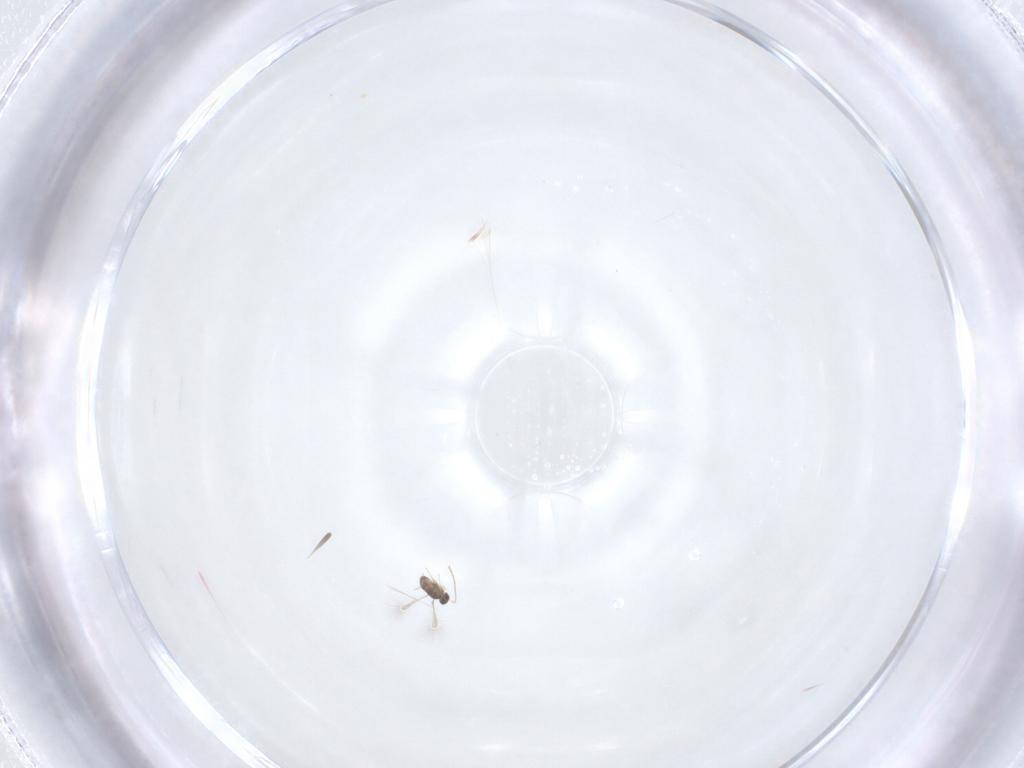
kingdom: Animalia
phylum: Arthropoda
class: Insecta
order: Hymenoptera
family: Mymaridae
